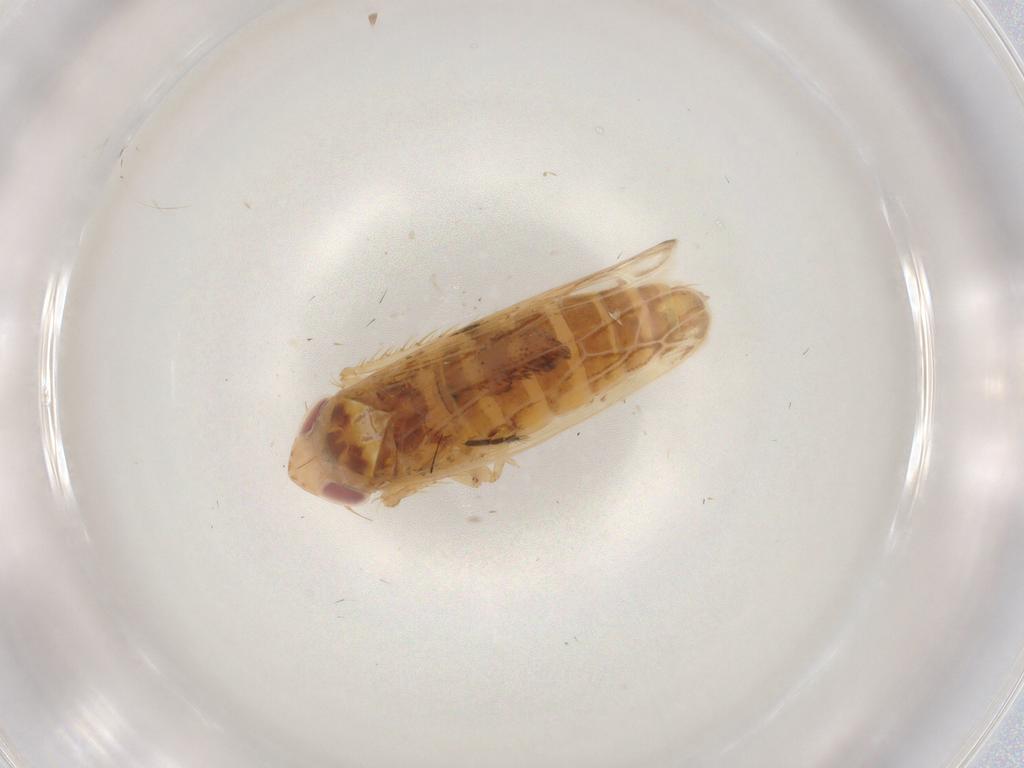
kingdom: Animalia
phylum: Arthropoda
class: Insecta
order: Hemiptera
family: Cicadellidae
